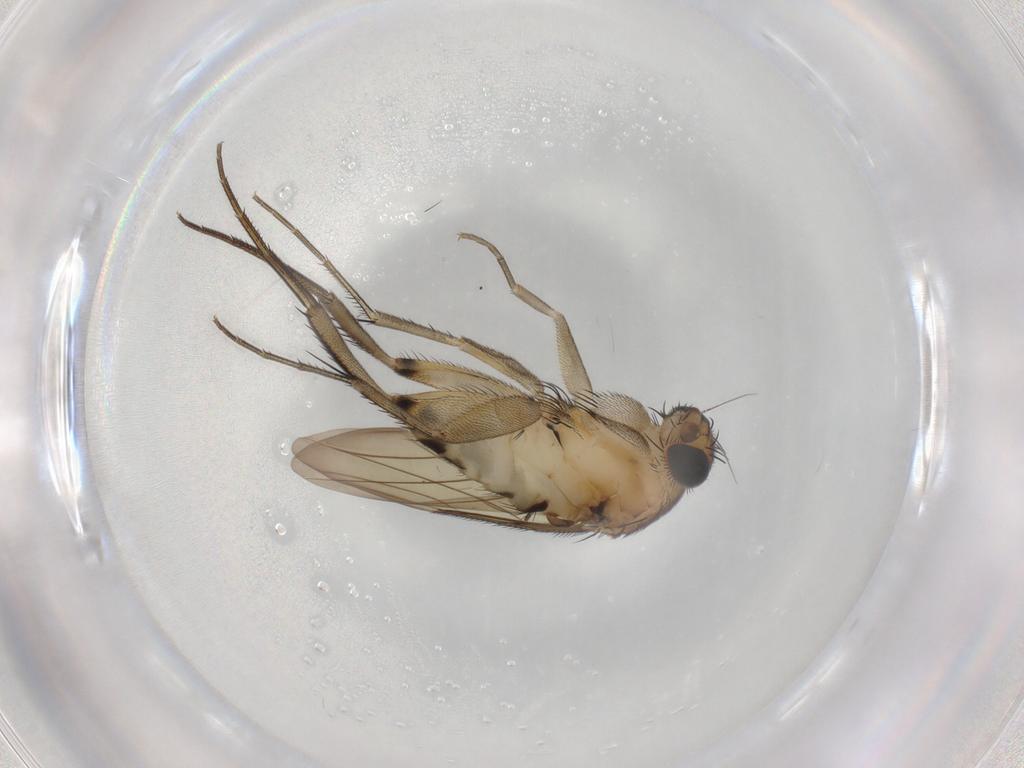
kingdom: Animalia
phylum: Arthropoda
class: Insecta
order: Diptera
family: Phoridae
